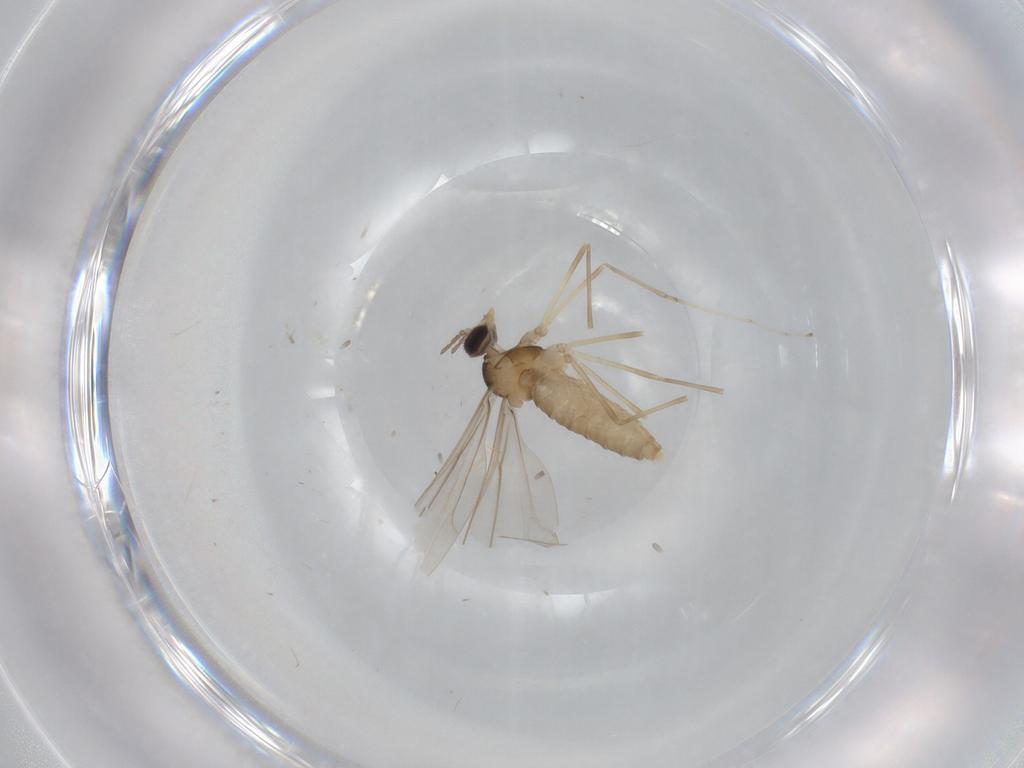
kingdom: Animalia
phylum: Arthropoda
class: Insecta
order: Diptera
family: Cecidomyiidae
